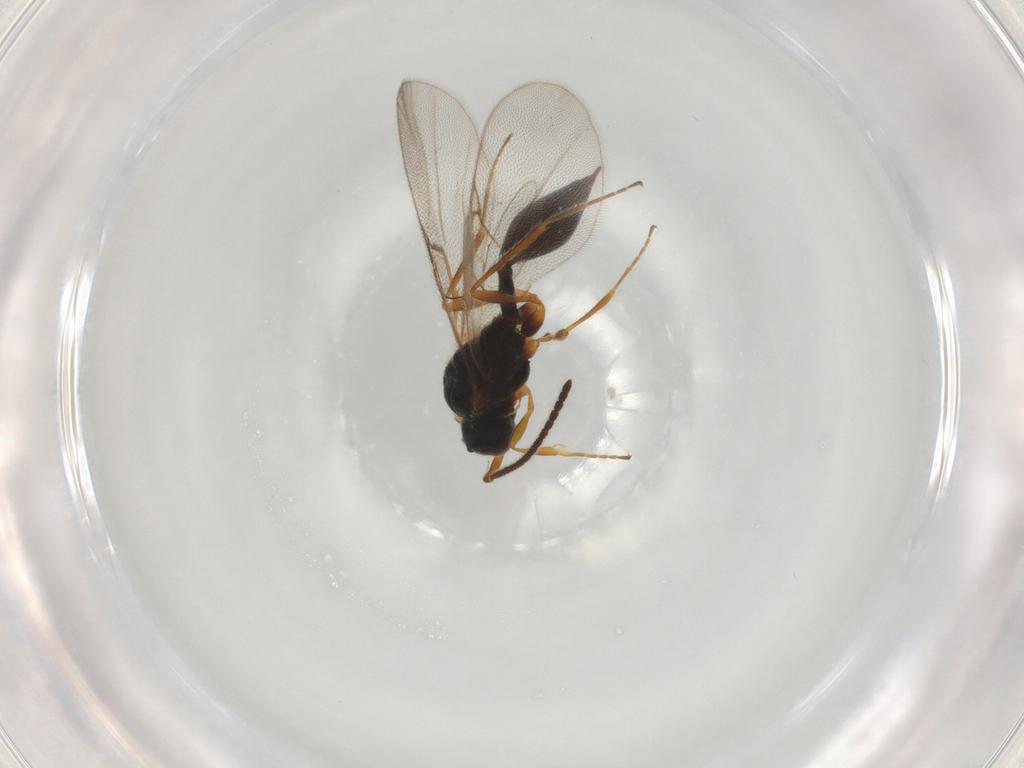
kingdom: Animalia
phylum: Arthropoda
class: Insecta
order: Hymenoptera
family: Diapriidae
